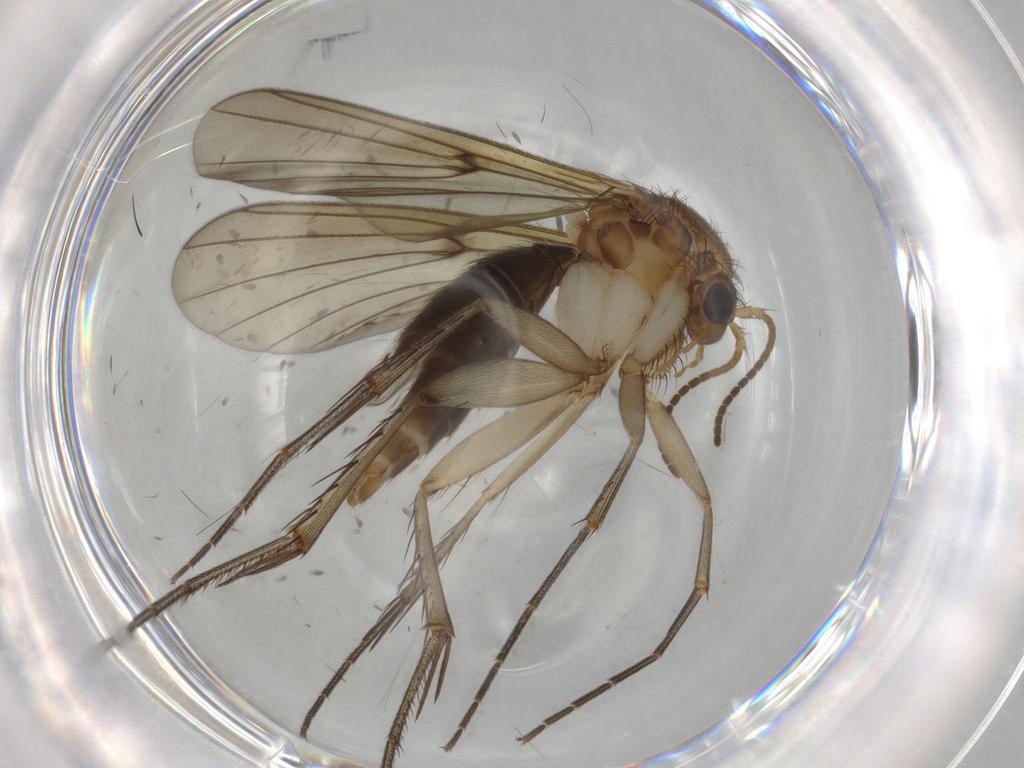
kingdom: Animalia
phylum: Arthropoda
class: Insecta
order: Diptera
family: Mycetophilidae
